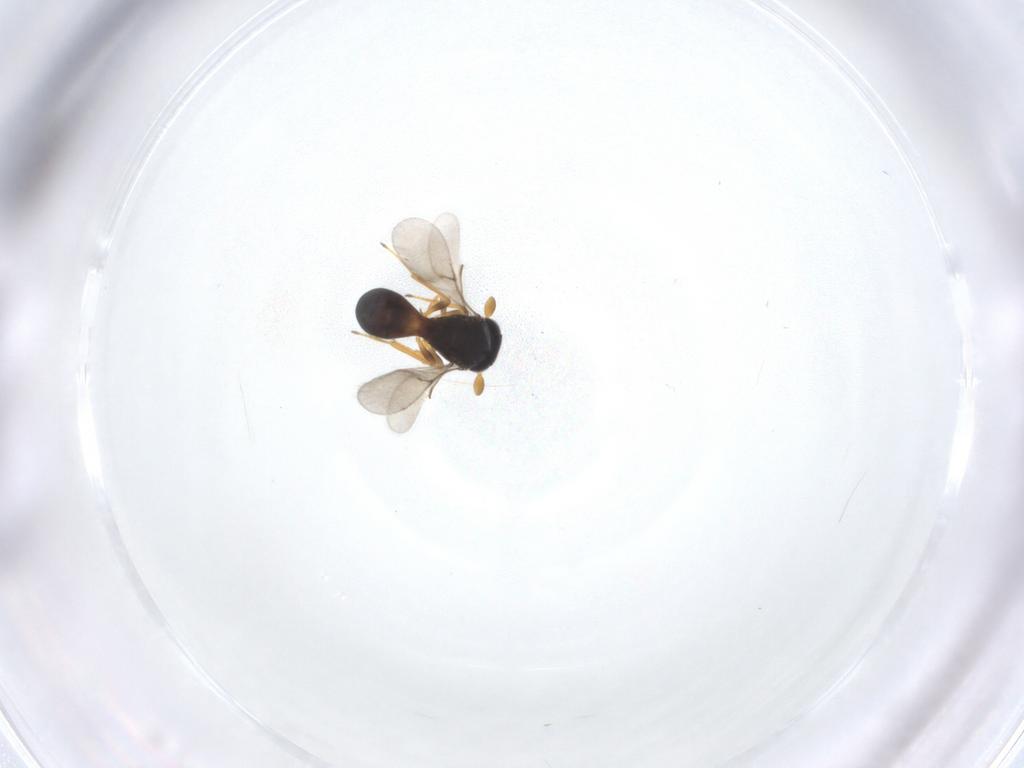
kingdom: Animalia
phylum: Arthropoda
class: Insecta
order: Hymenoptera
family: Scelionidae
